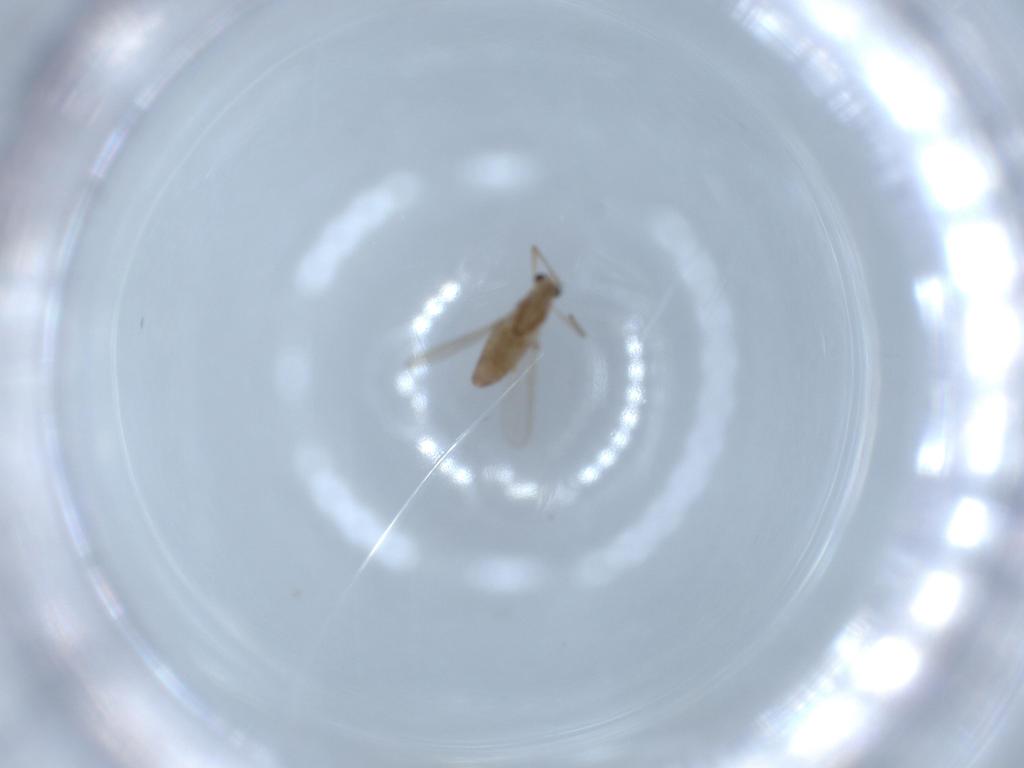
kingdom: Animalia
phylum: Arthropoda
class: Insecta
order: Diptera
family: Chironomidae
